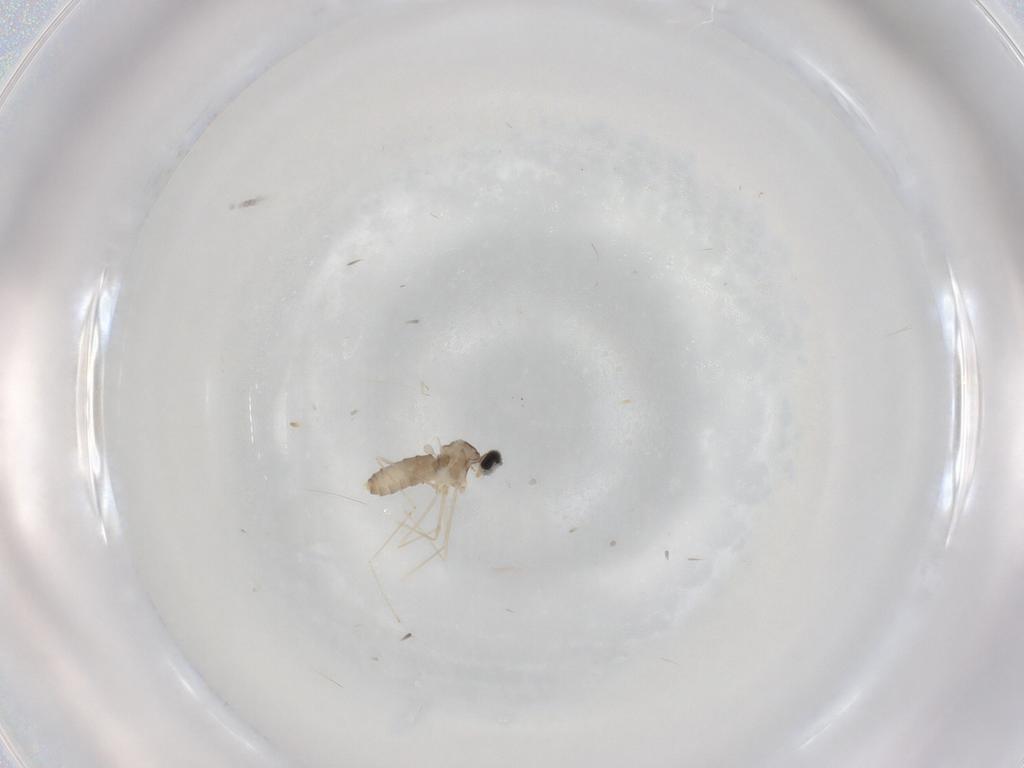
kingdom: Animalia
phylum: Arthropoda
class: Insecta
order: Diptera
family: Cecidomyiidae
